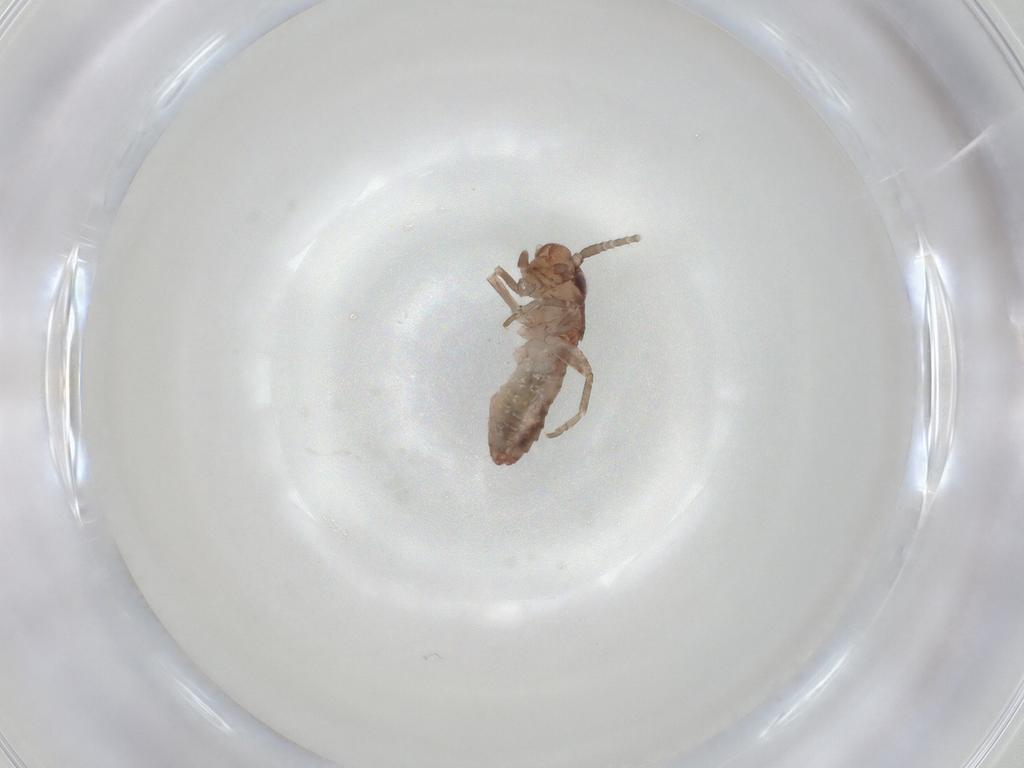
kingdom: Animalia
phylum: Arthropoda
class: Insecta
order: Orthoptera
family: Mogoplistidae
